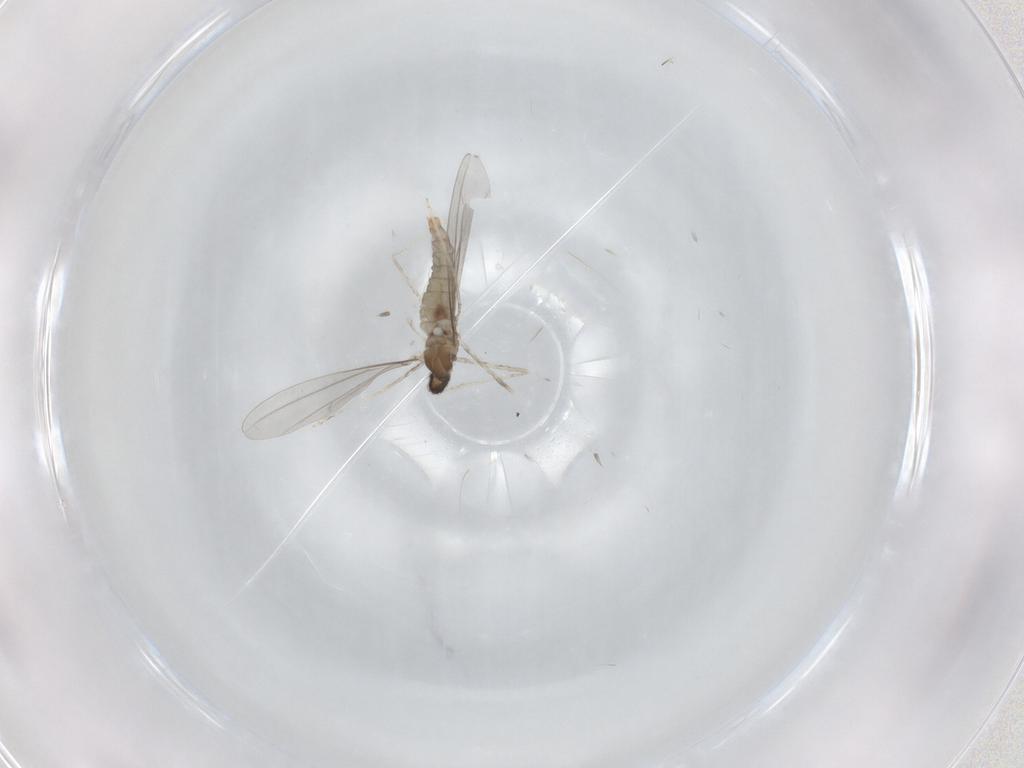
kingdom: Animalia
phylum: Arthropoda
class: Insecta
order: Diptera
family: Cecidomyiidae
